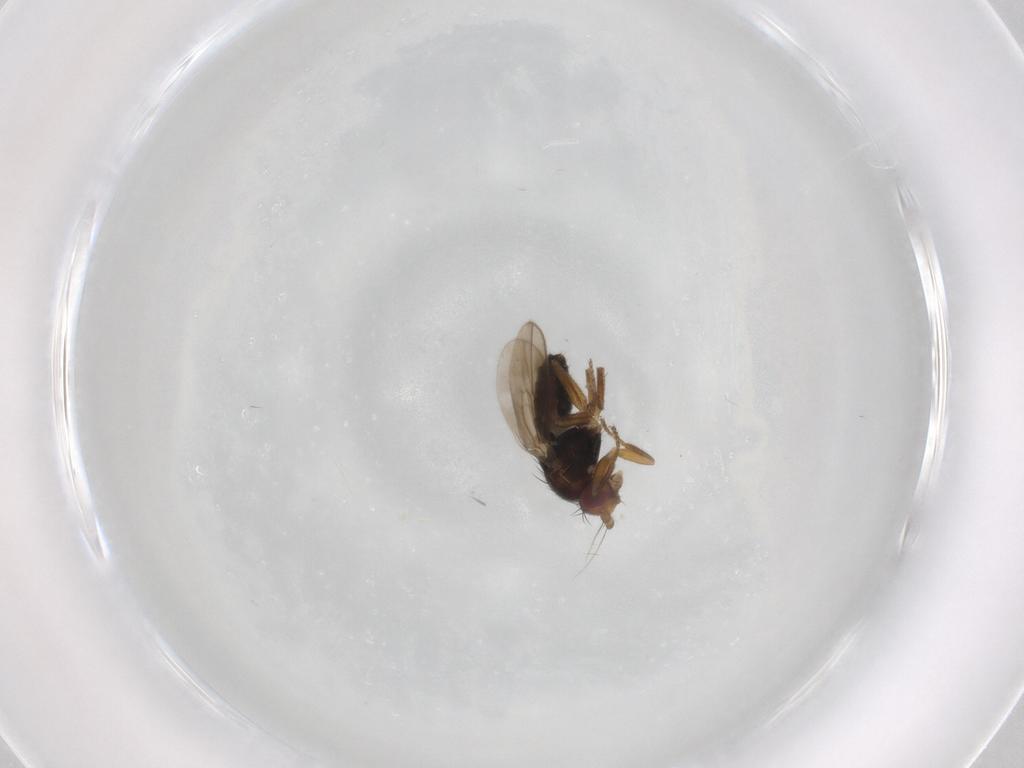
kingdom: Animalia
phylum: Arthropoda
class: Insecta
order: Diptera
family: Sphaeroceridae
